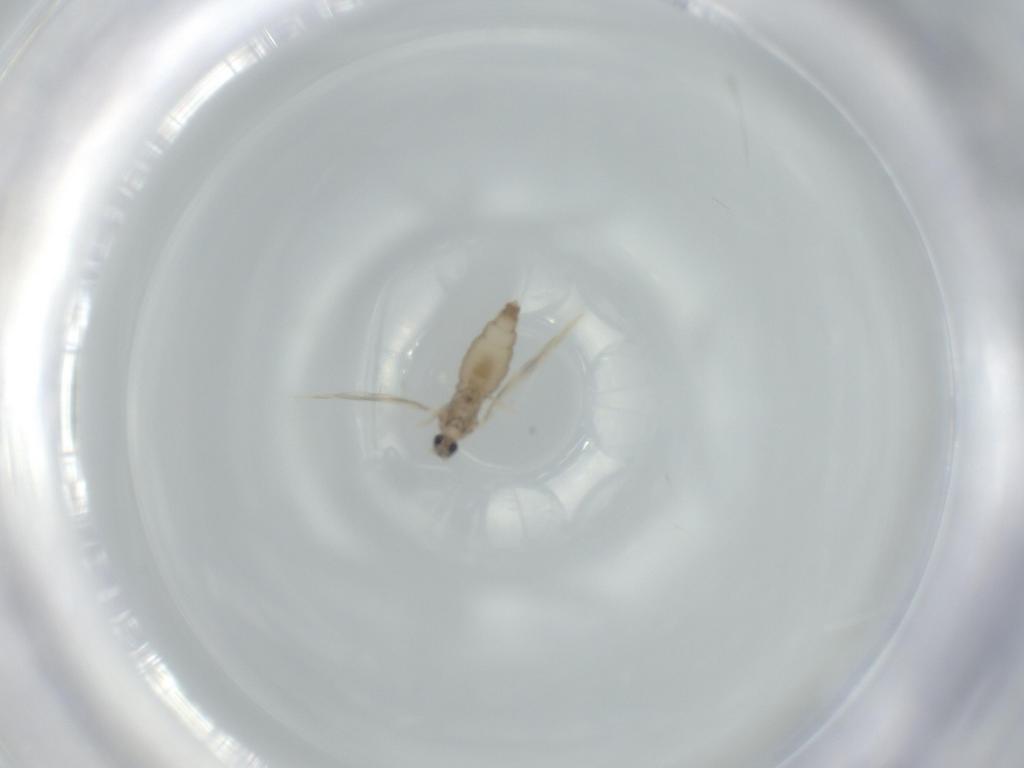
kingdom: Animalia
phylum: Arthropoda
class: Insecta
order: Diptera
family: Cecidomyiidae
